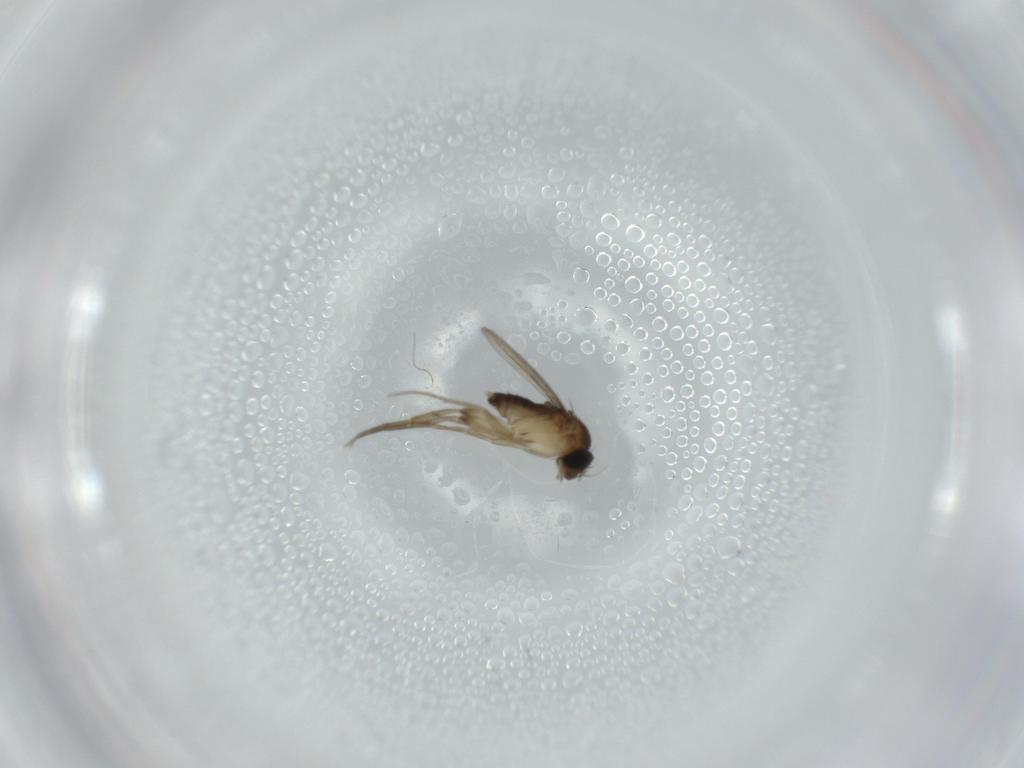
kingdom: Animalia
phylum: Arthropoda
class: Insecta
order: Diptera
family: Phoridae
